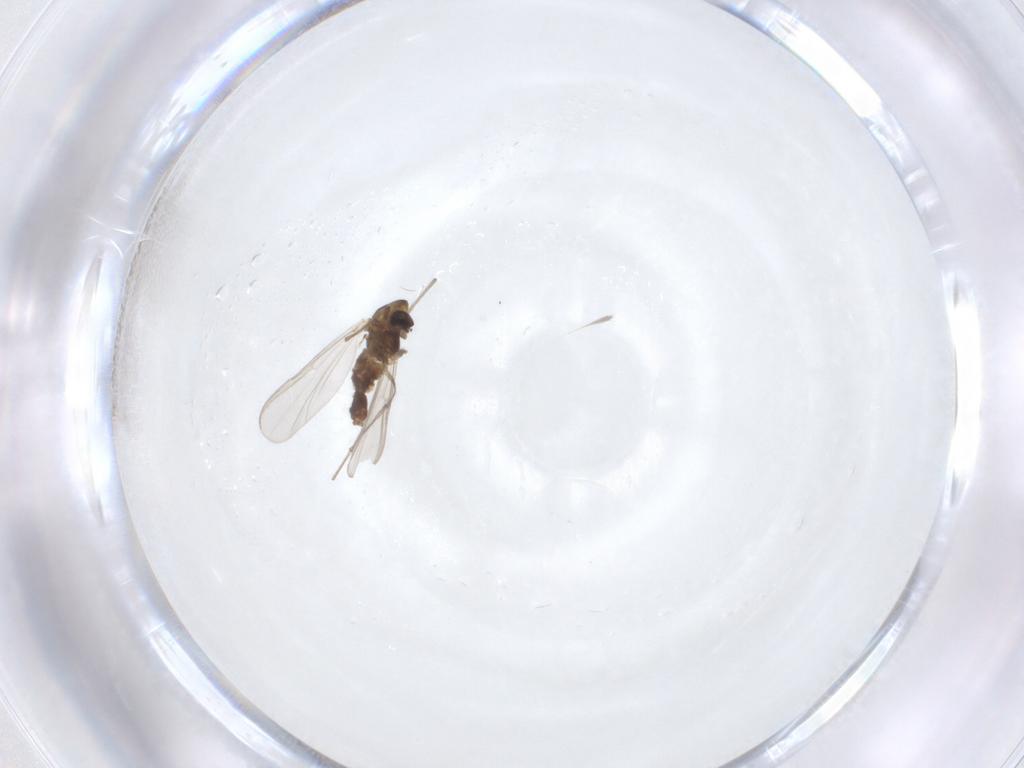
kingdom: Animalia
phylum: Arthropoda
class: Insecta
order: Diptera
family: Chironomidae
